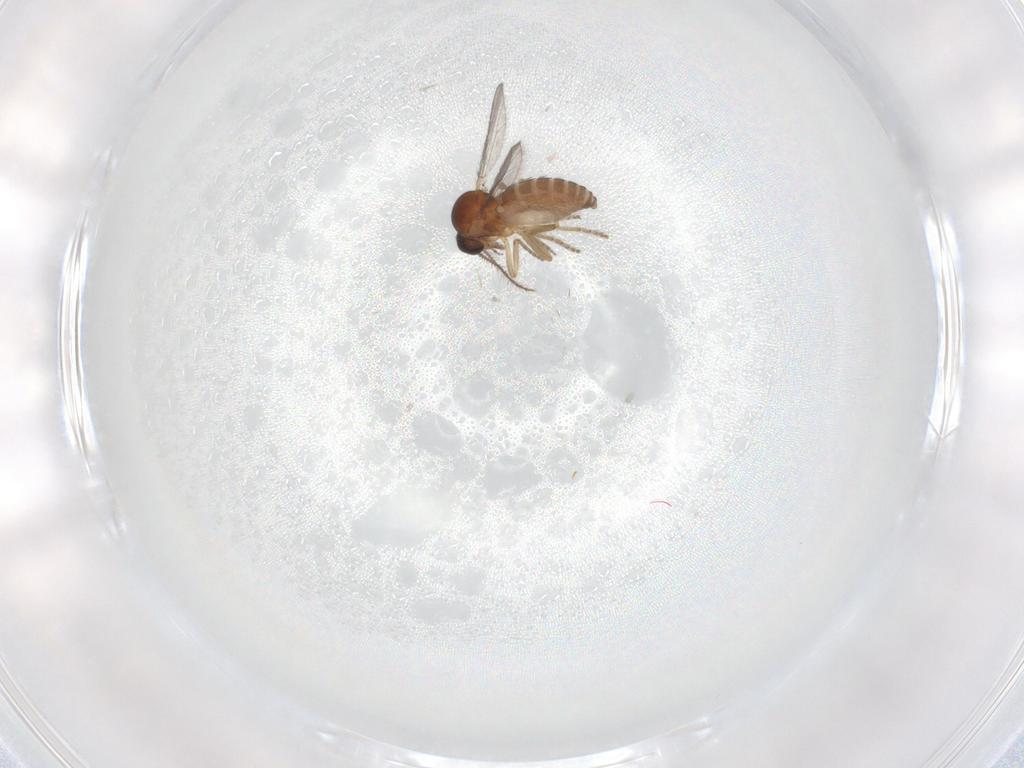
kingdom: Animalia
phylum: Arthropoda
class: Insecta
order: Diptera
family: Ceratopogonidae
